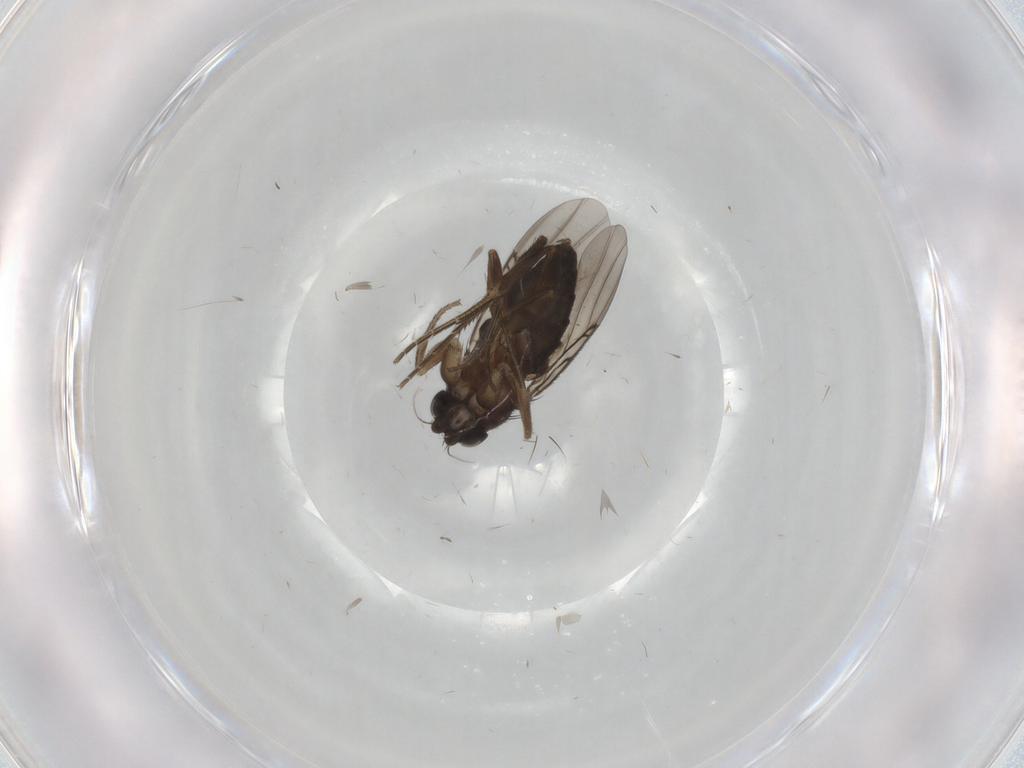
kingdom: Animalia
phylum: Arthropoda
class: Insecta
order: Diptera
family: Phoridae
